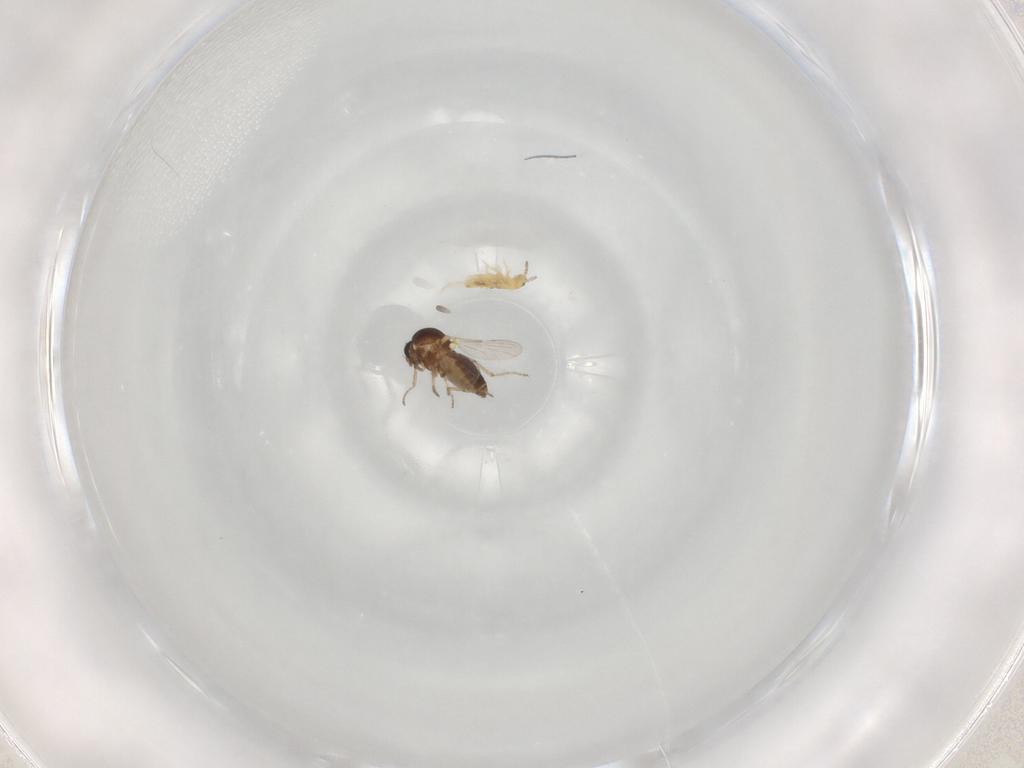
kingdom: Animalia
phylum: Arthropoda
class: Insecta
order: Diptera
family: Ceratopogonidae
